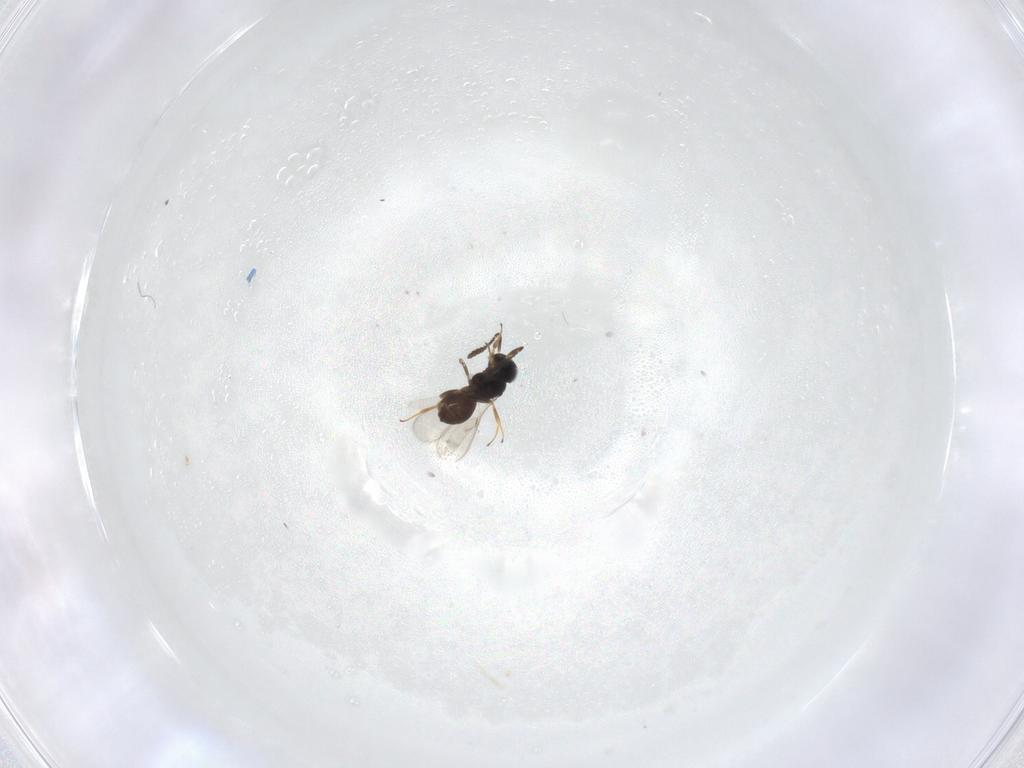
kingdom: Animalia
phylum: Arthropoda
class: Insecta
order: Hymenoptera
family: Scelionidae
